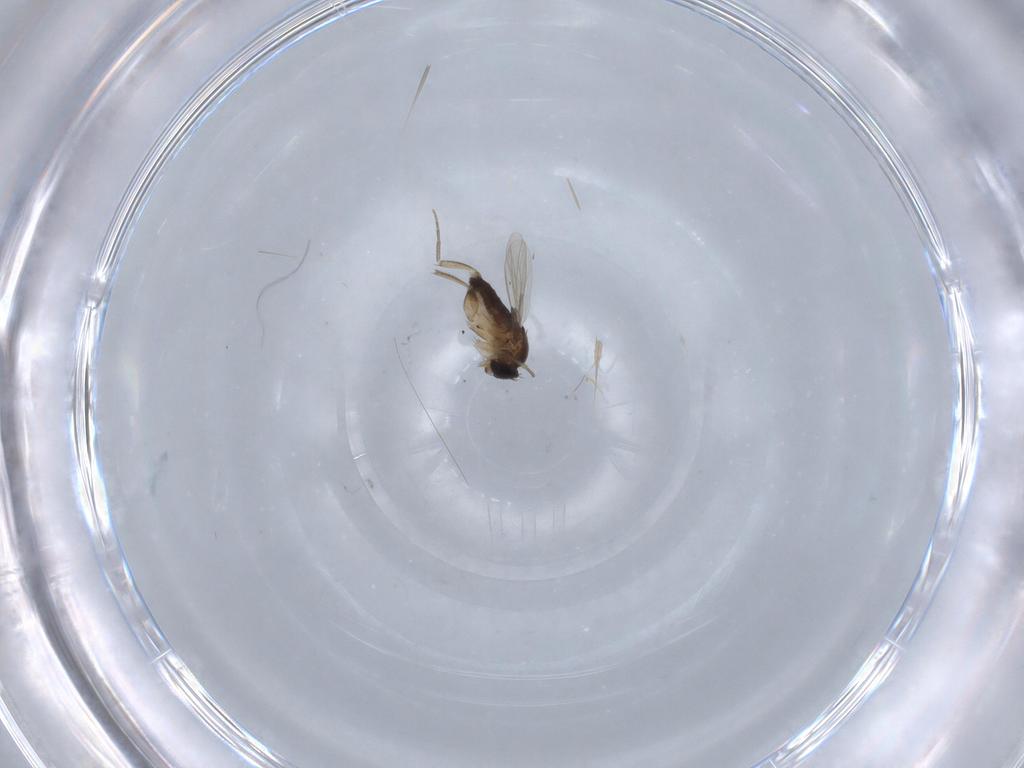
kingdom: Animalia
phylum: Arthropoda
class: Insecta
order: Diptera
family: Phoridae
